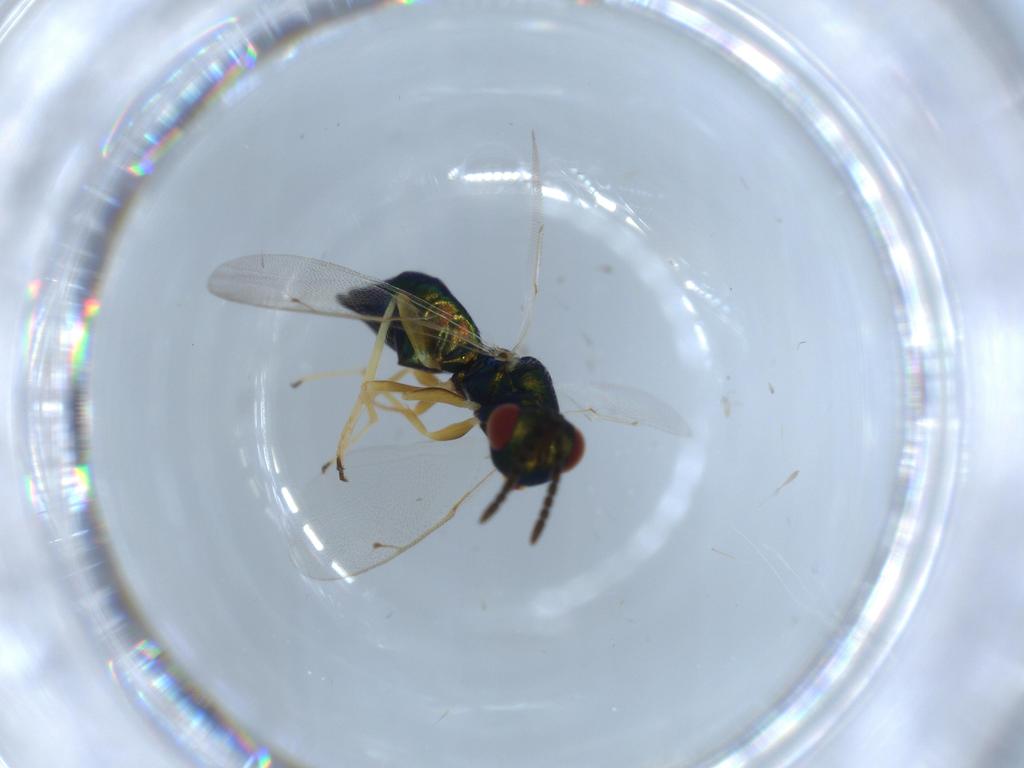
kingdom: Animalia
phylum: Arthropoda
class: Insecta
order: Hymenoptera
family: Pteromalidae
